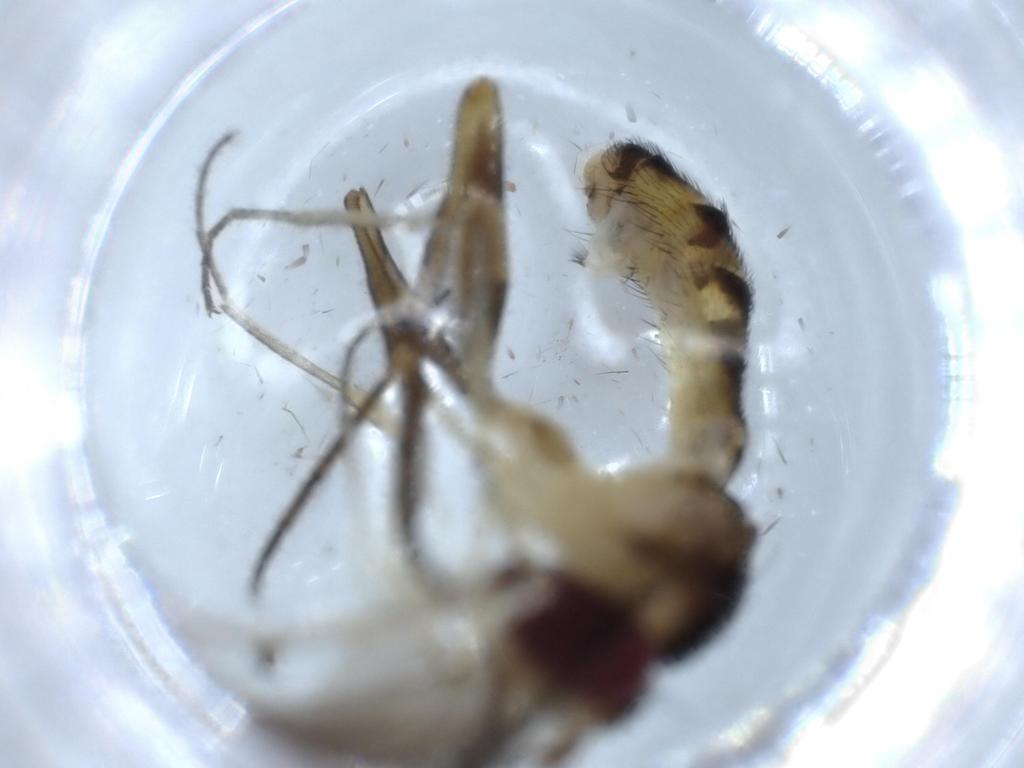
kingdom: Animalia
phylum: Arthropoda
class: Insecta
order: Diptera
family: Conopidae
